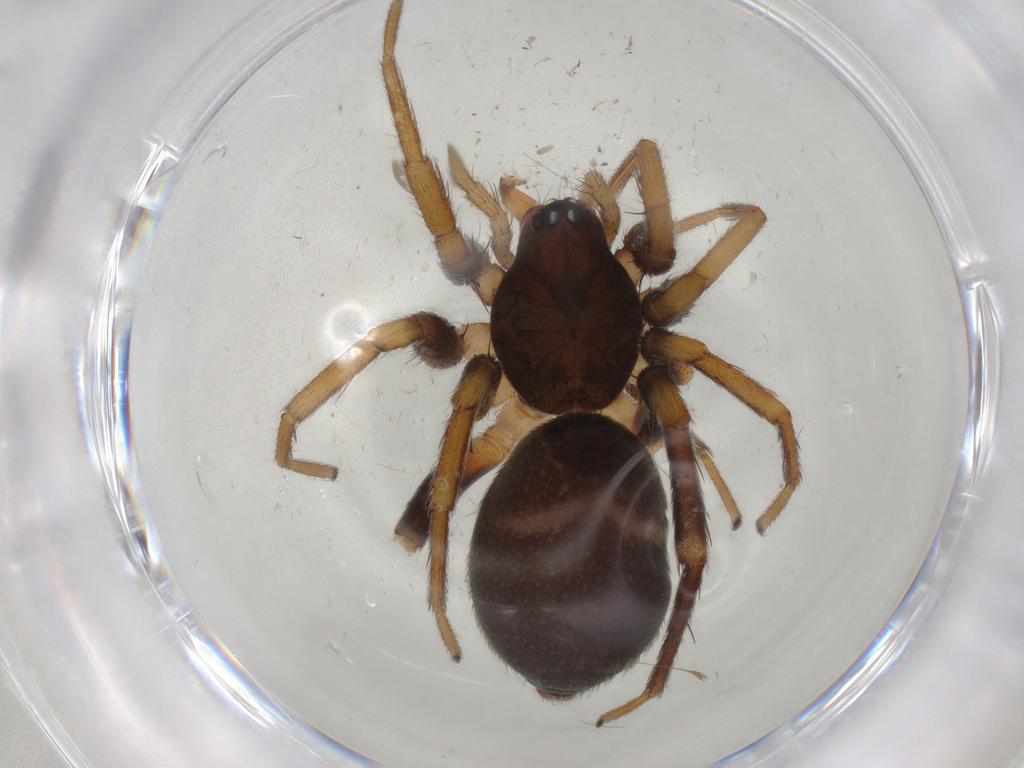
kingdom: Animalia
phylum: Arthropoda
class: Arachnida
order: Araneae
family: Corinnidae
